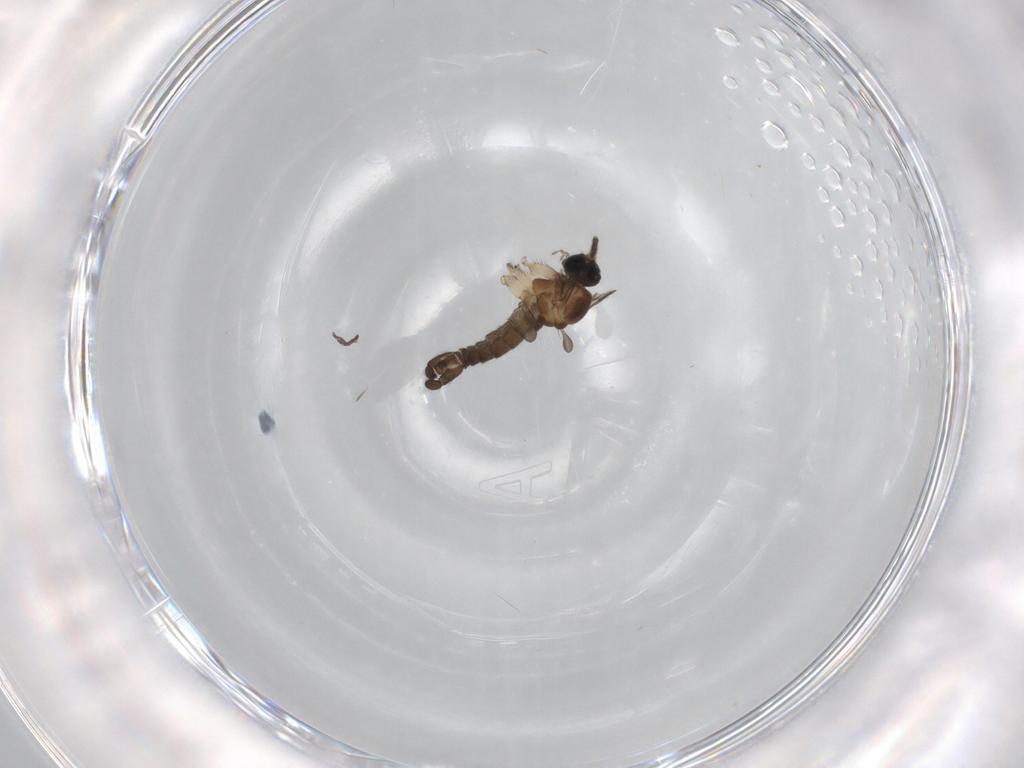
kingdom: Animalia
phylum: Arthropoda
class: Insecta
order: Diptera
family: Sciaridae
